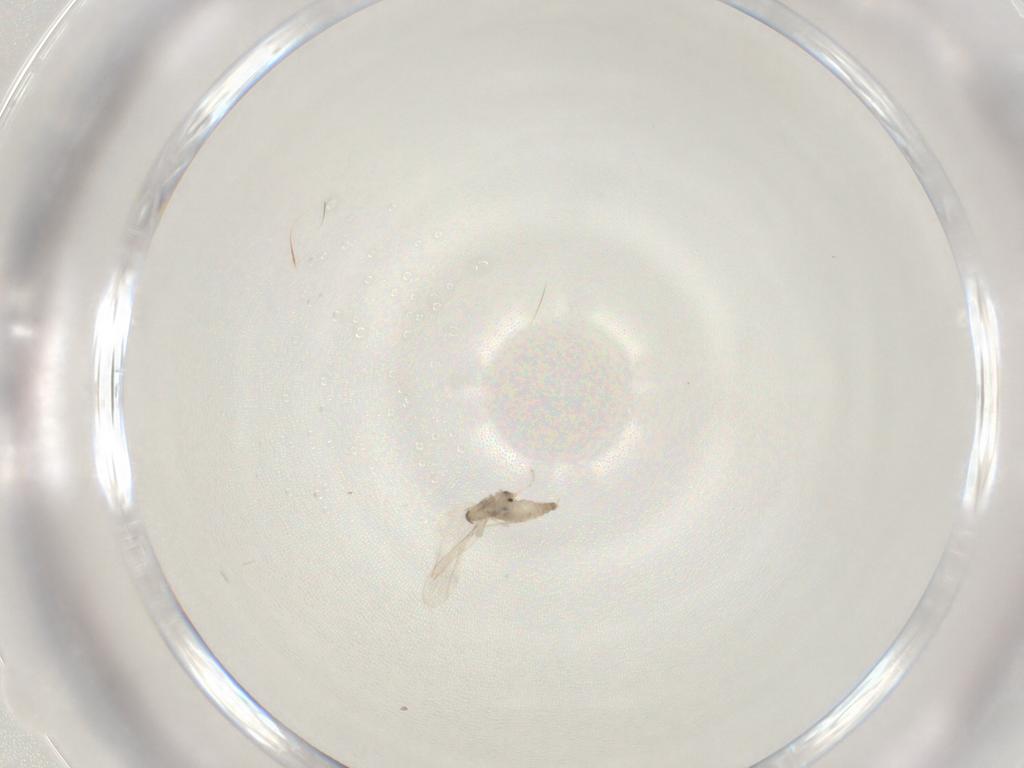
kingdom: Animalia
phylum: Arthropoda
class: Insecta
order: Diptera
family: Cecidomyiidae
